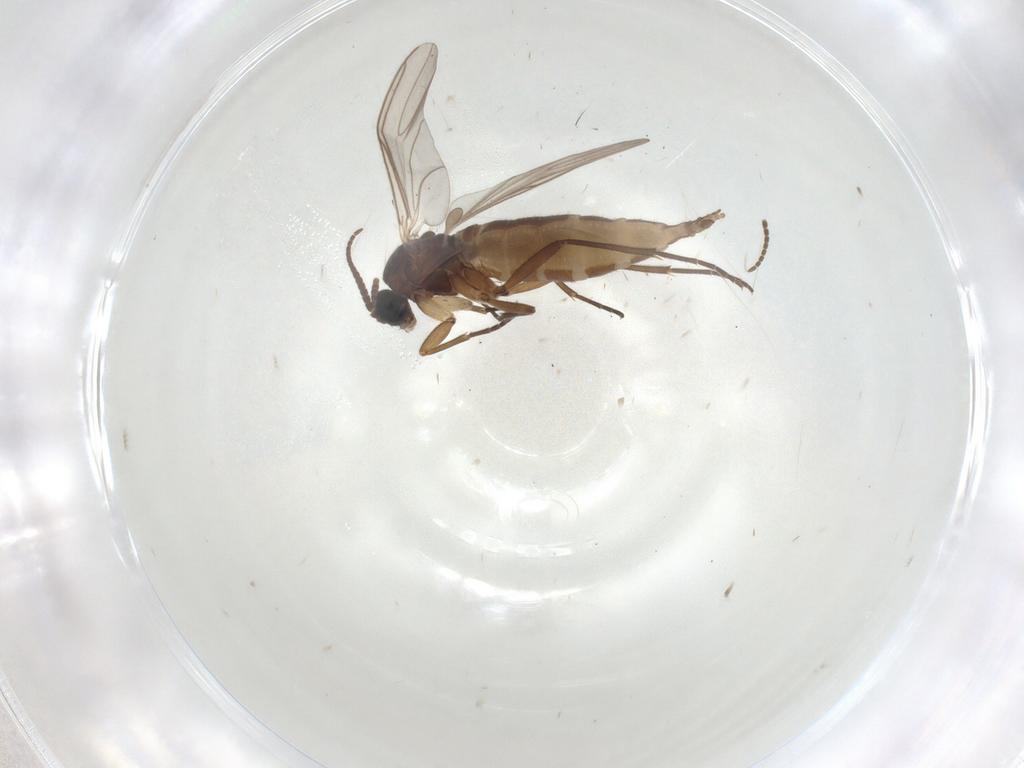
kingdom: Animalia
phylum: Arthropoda
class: Insecta
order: Diptera
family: Sciaridae
